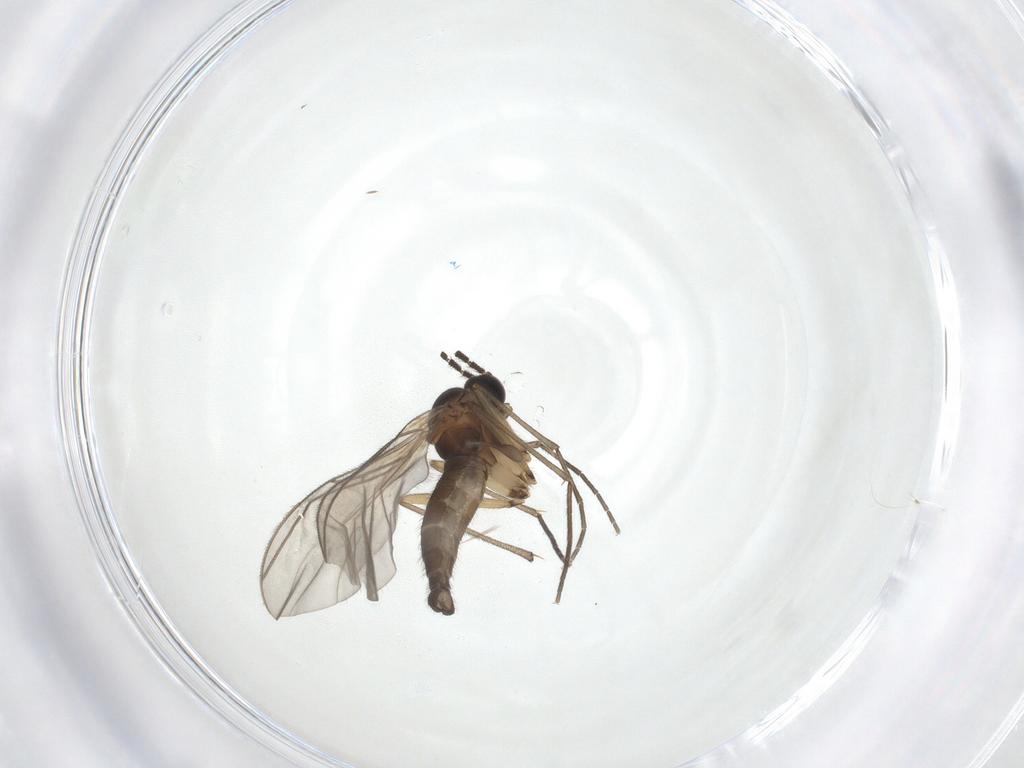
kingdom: Animalia
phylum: Arthropoda
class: Insecta
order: Diptera
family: Sciaridae
